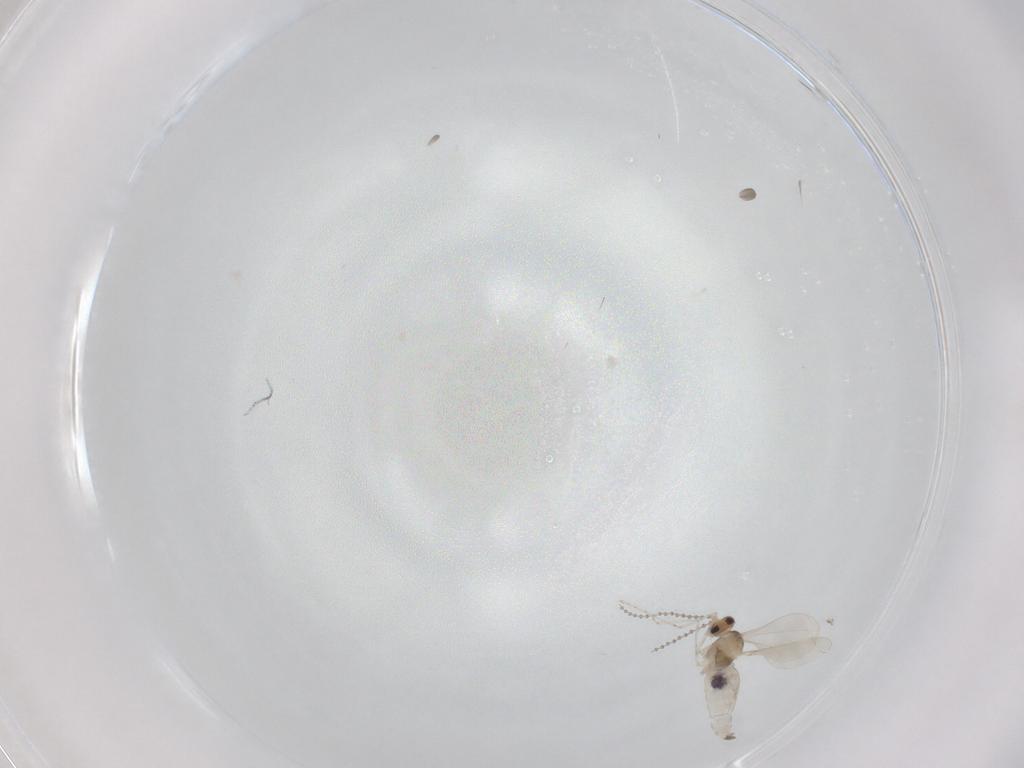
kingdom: Animalia
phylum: Arthropoda
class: Insecta
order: Diptera
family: Cecidomyiidae
